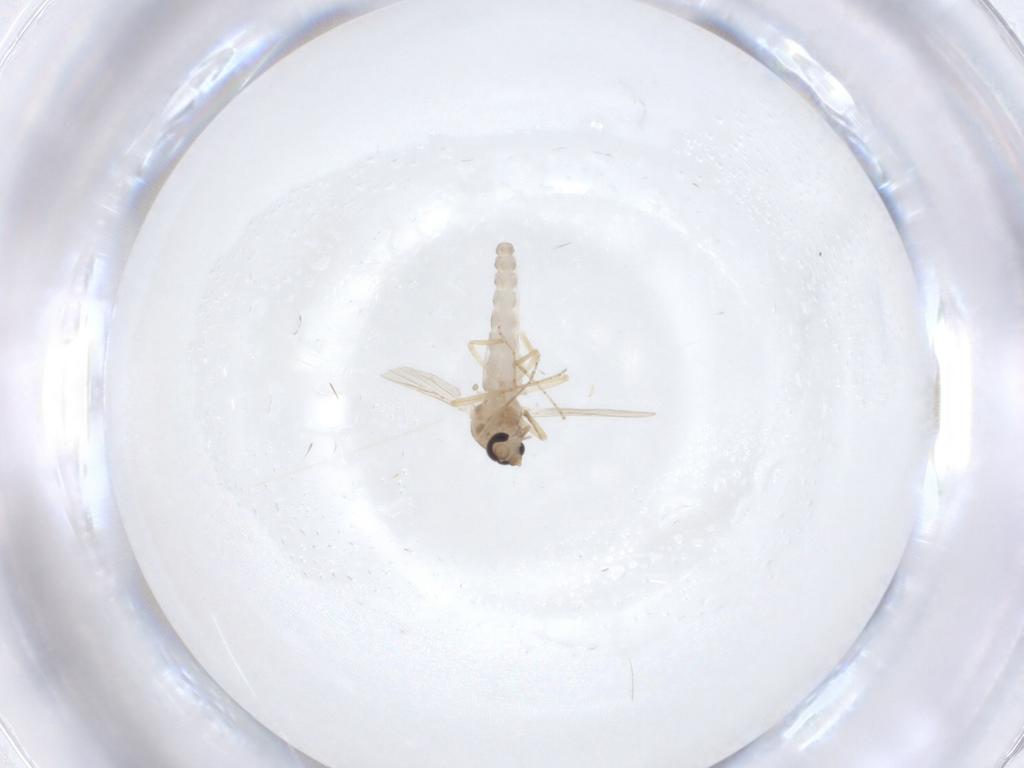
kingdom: Animalia
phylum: Arthropoda
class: Insecta
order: Diptera
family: Ceratopogonidae
